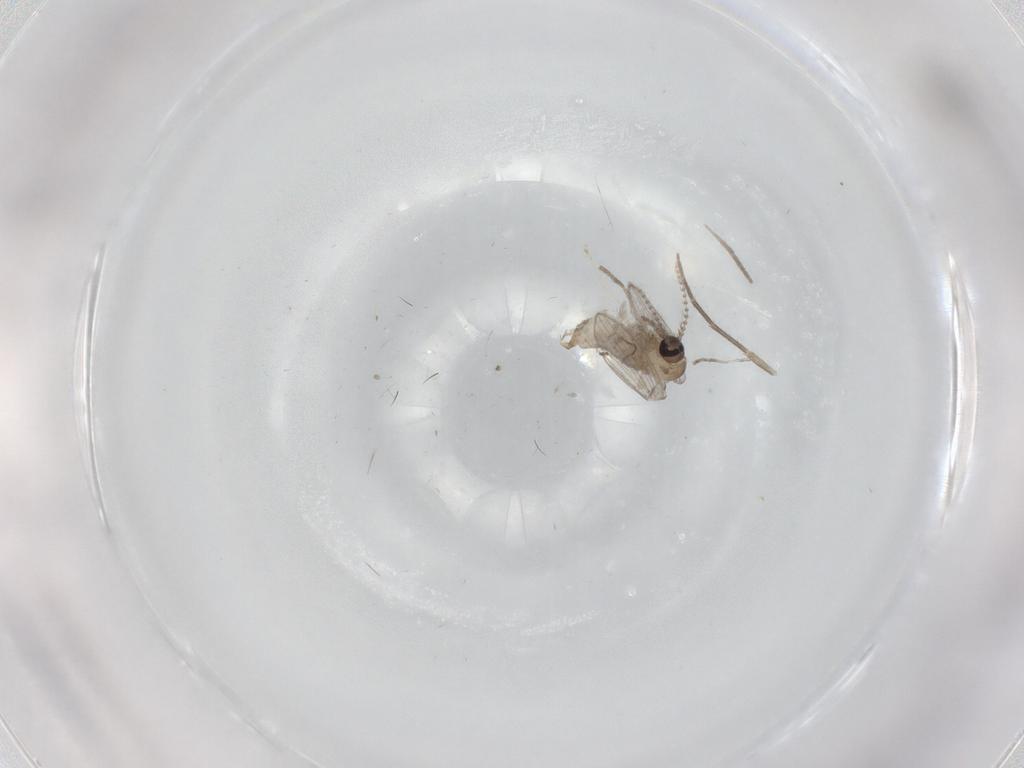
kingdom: Animalia
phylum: Arthropoda
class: Insecta
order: Diptera
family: Psychodidae
